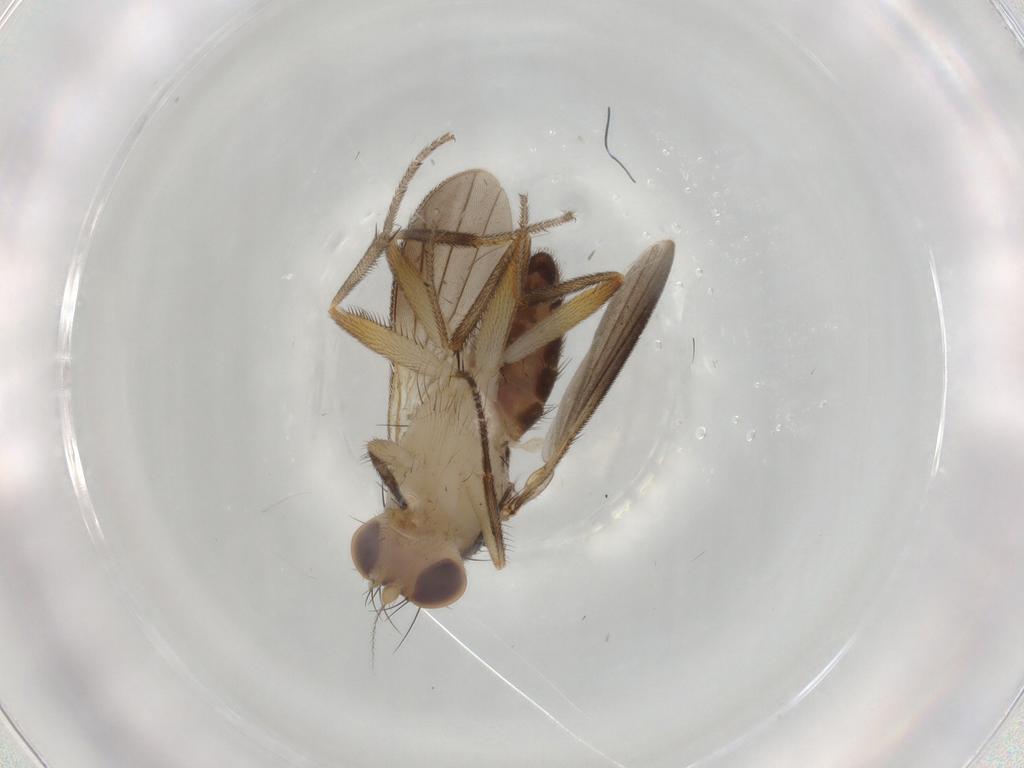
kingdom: Animalia
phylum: Arthropoda
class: Insecta
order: Diptera
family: Clusiidae
